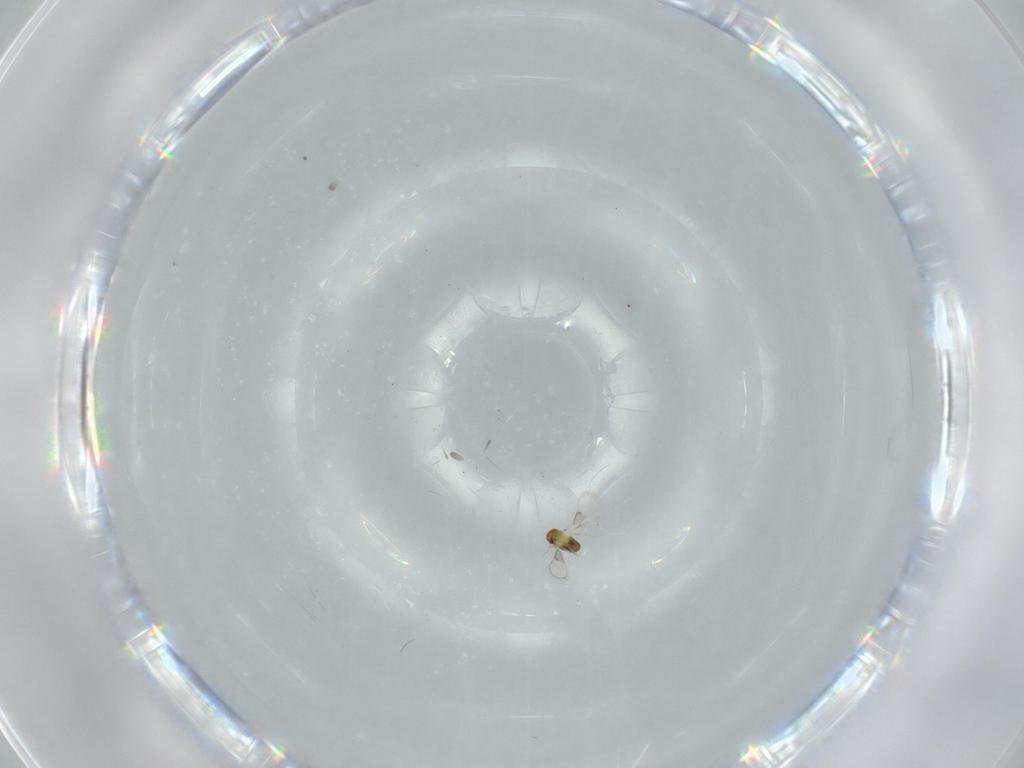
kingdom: Animalia
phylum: Arthropoda
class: Insecta
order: Hymenoptera
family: Trichogrammatidae
